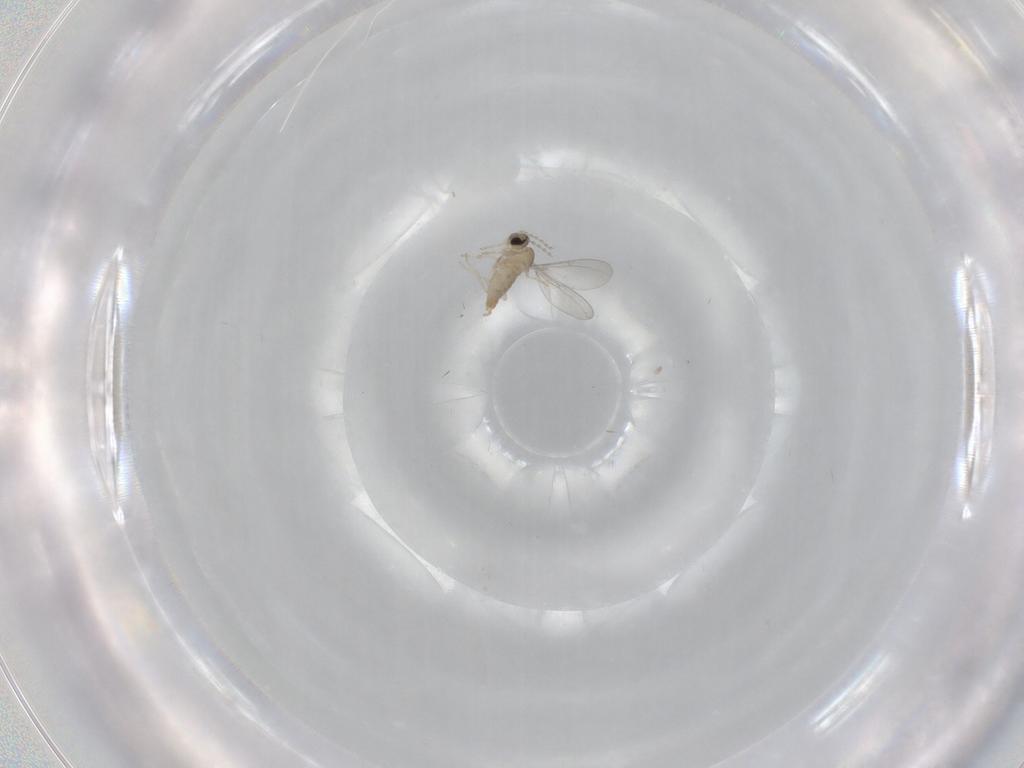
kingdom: Animalia
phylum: Arthropoda
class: Insecta
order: Diptera
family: Cecidomyiidae
